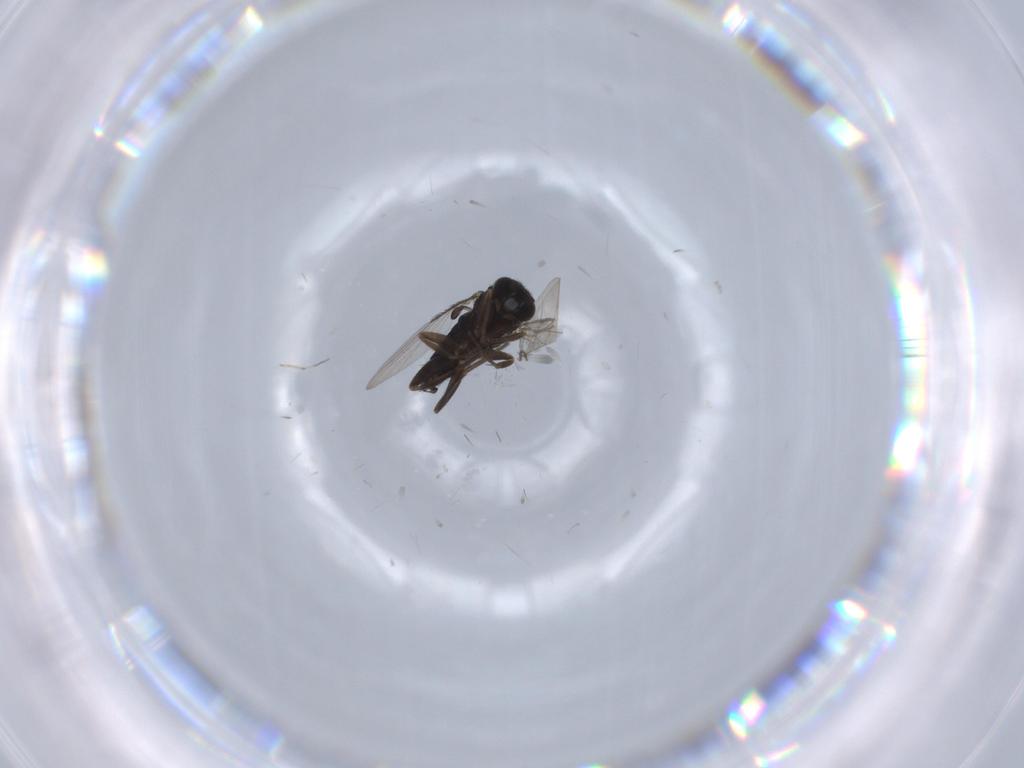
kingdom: Animalia
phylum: Arthropoda
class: Insecta
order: Diptera
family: Phoridae
